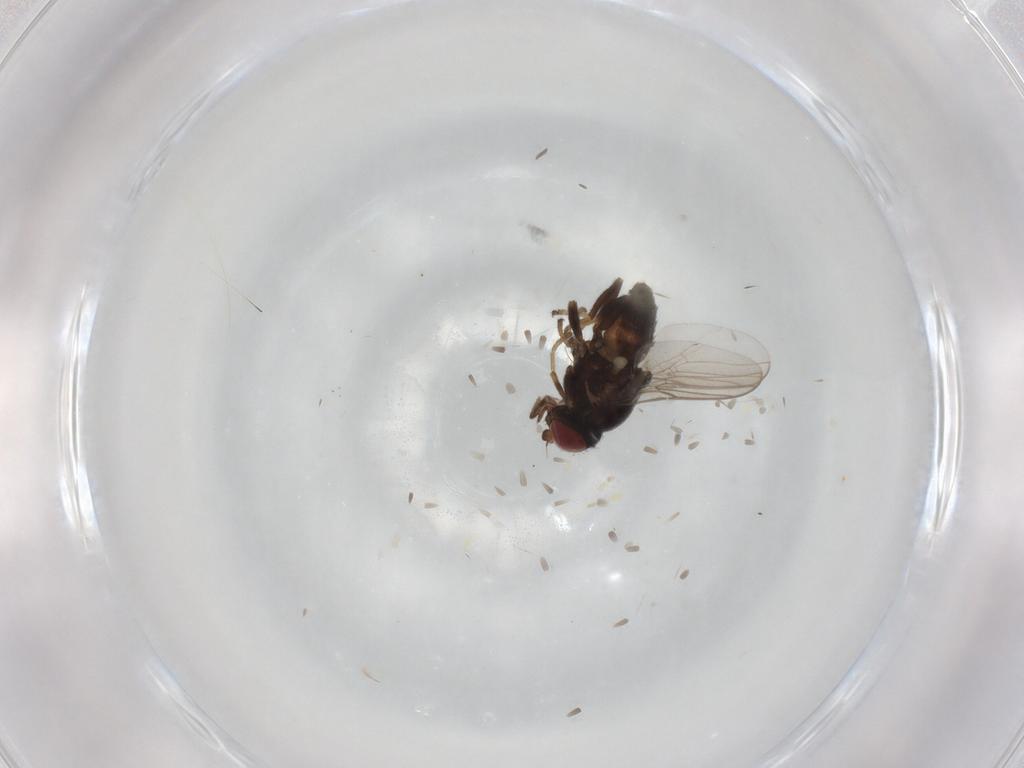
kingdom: Animalia
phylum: Arthropoda
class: Insecta
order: Diptera
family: Chloropidae
